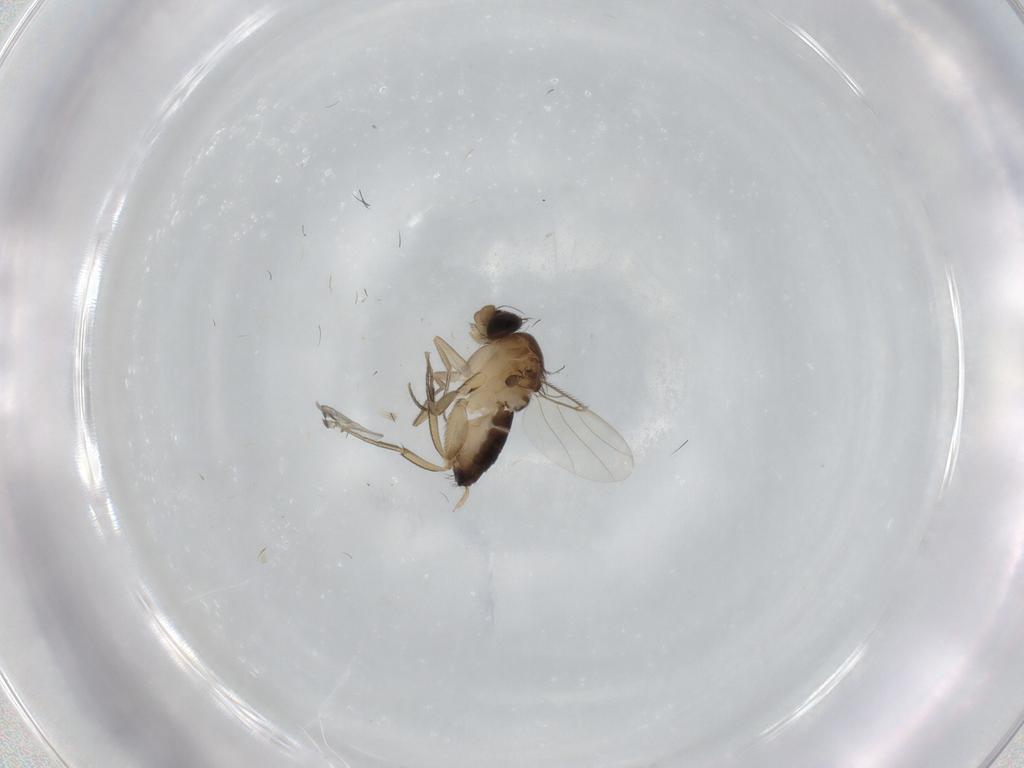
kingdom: Animalia
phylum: Arthropoda
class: Insecta
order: Diptera
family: Phoridae
